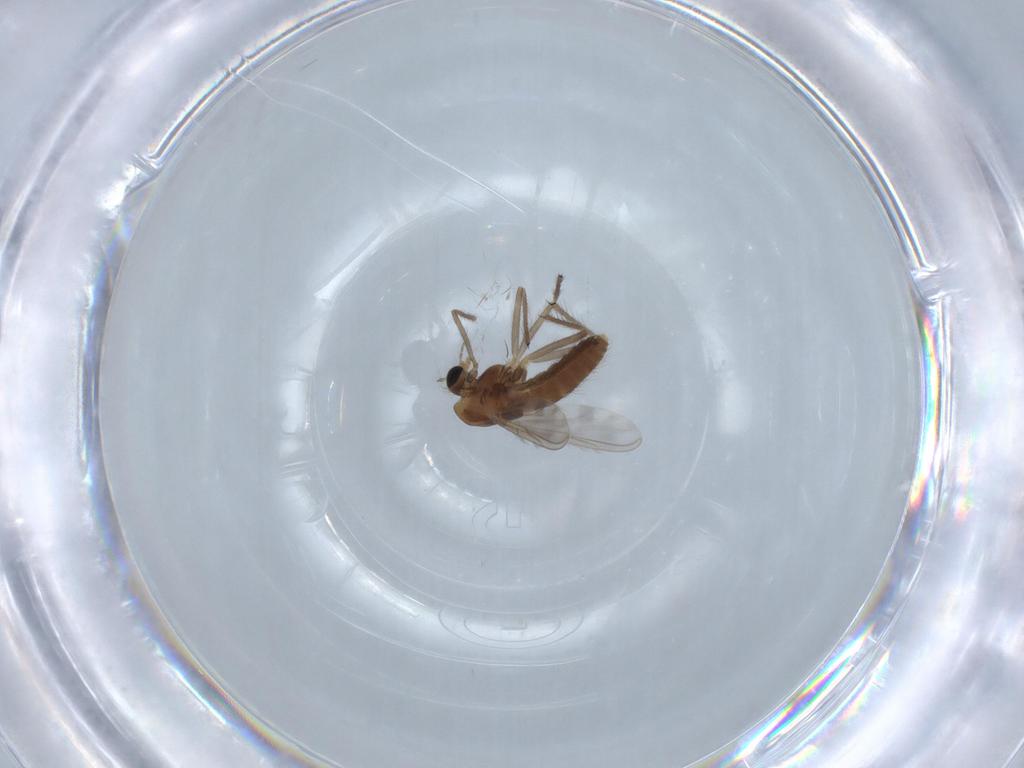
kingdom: Animalia
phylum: Arthropoda
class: Insecta
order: Diptera
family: Chironomidae
